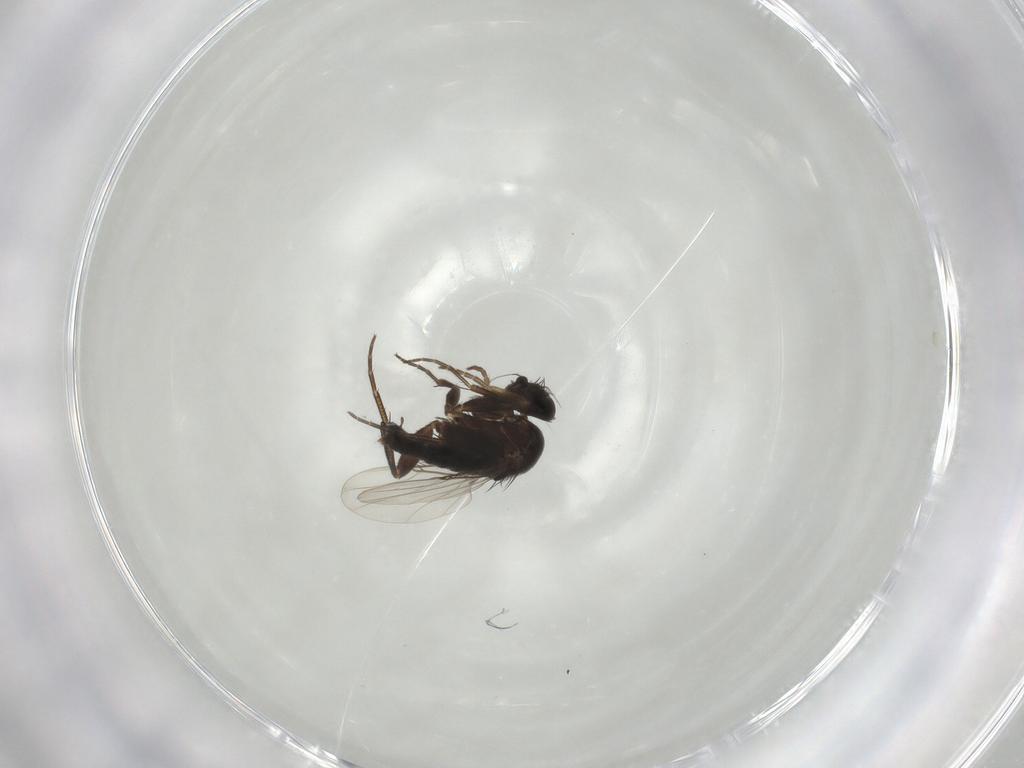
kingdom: Animalia
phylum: Arthropoda
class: Insecta
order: Diptera
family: Phoridae
